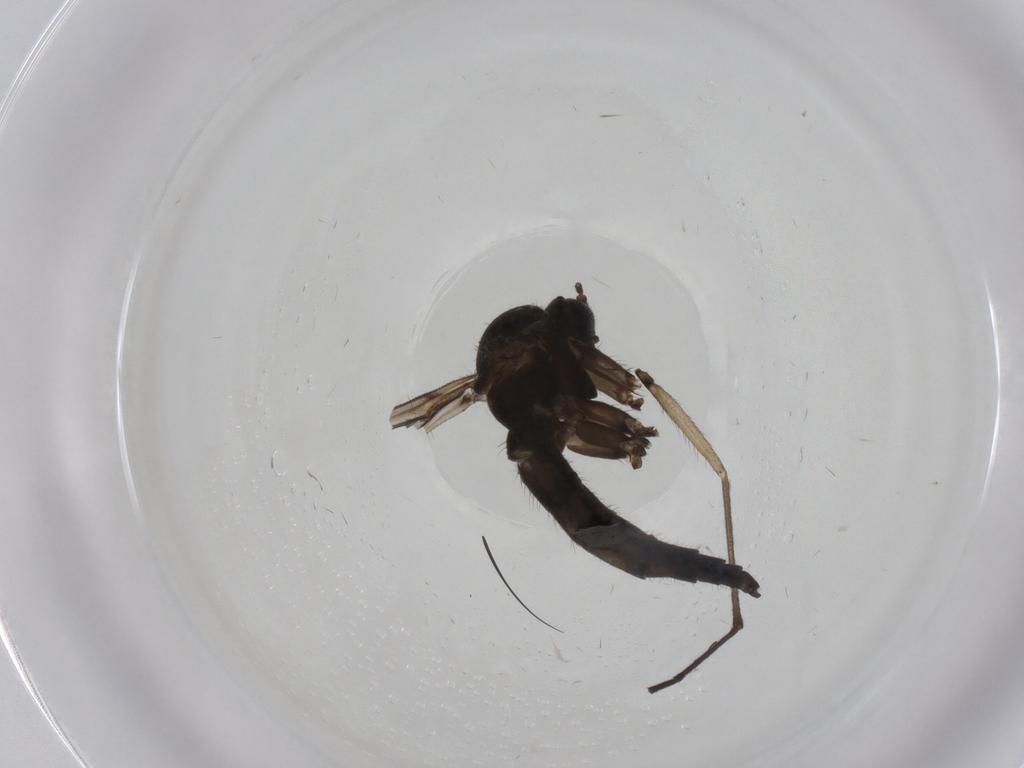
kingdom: Animalia
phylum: Arthropoda
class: Insecta
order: Diptera
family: Sciaridae
